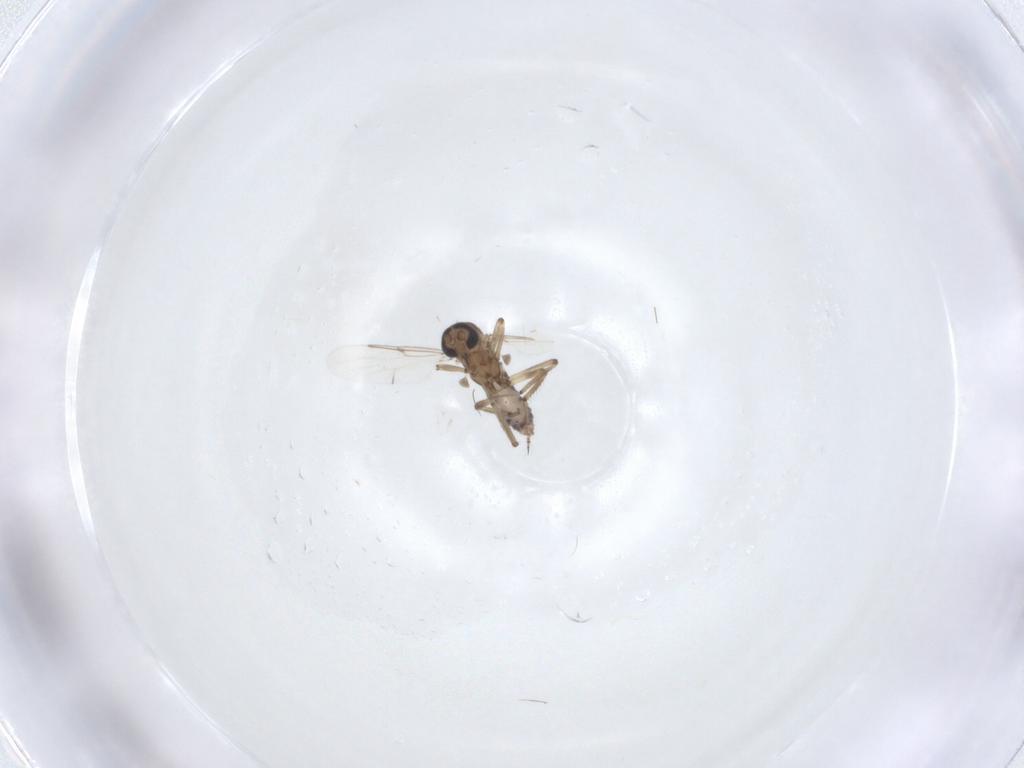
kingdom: Animalia
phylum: Arthropoda
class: Insecta
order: Diptera
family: Ceratopogonidae
